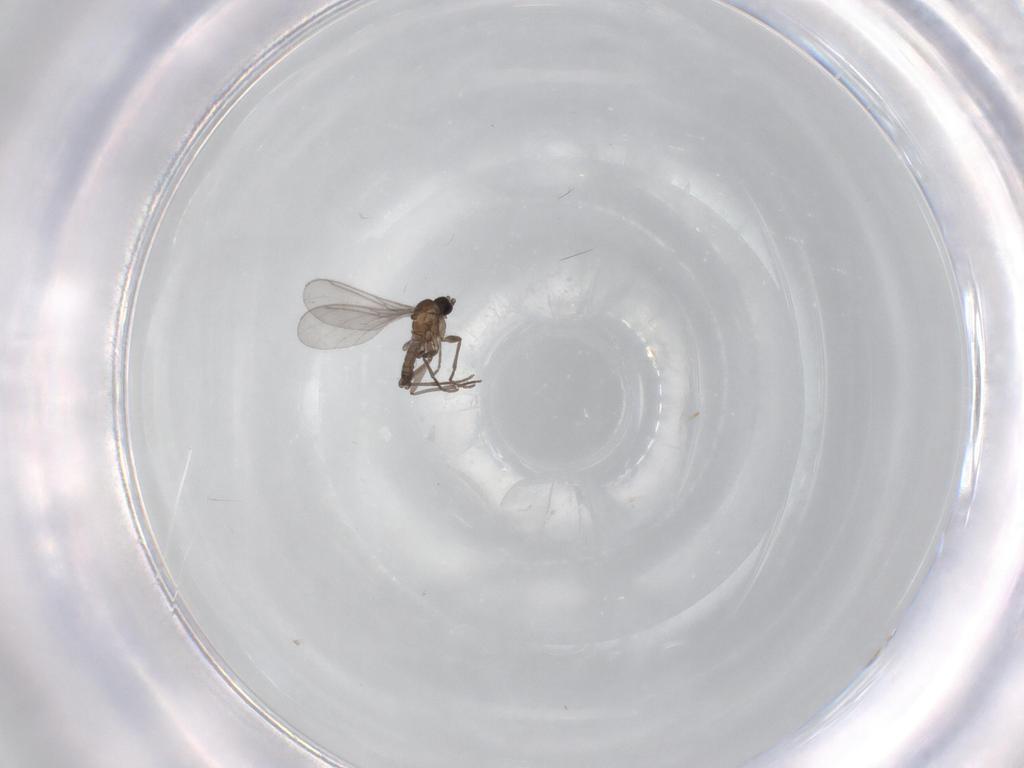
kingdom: Animalia
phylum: Arthropoda
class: Insecta
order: Diptera
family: Sciaridae
